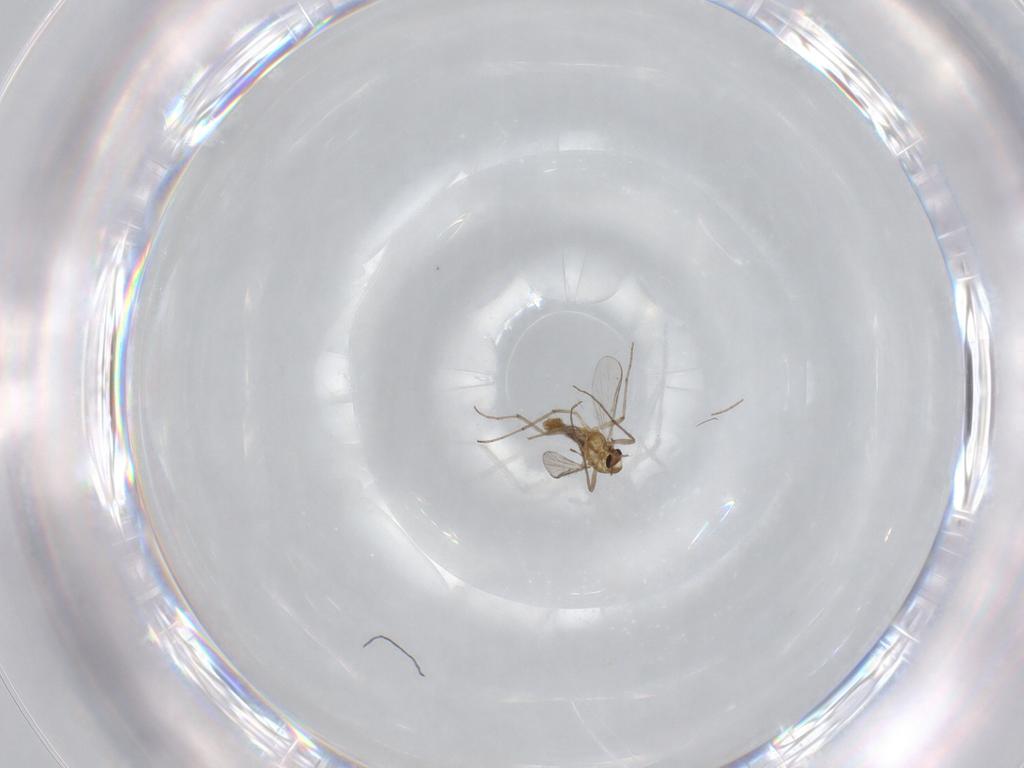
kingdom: Animalia
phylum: Arthropoda
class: Insecta
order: Diptera
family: Chironomidae
